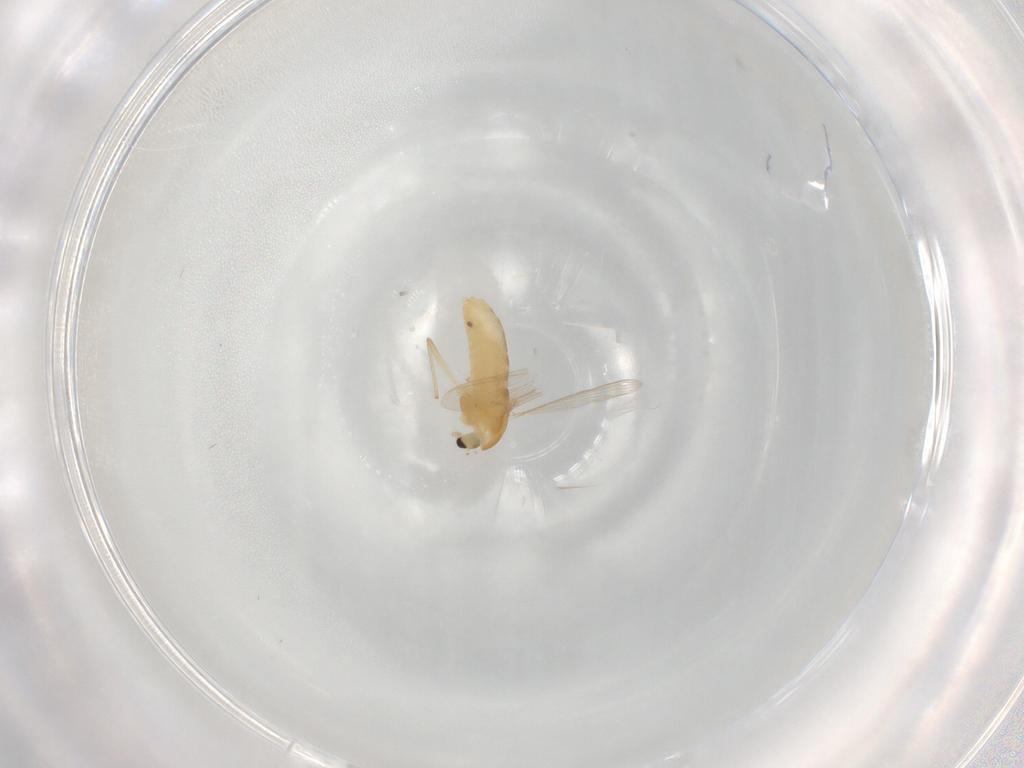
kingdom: Animalia
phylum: Arthropoda
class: Insecta
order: Diptera
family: Chironomidae
